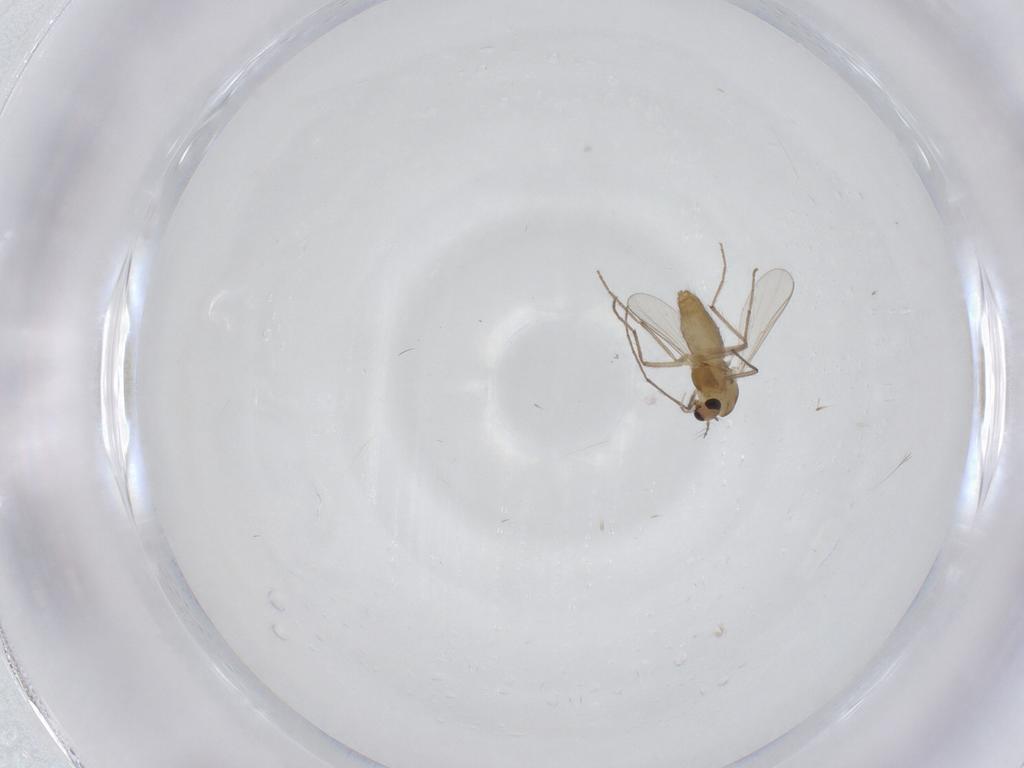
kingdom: Animalia
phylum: Arthropoda
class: Insecta
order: Diptera
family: Chironomidae
